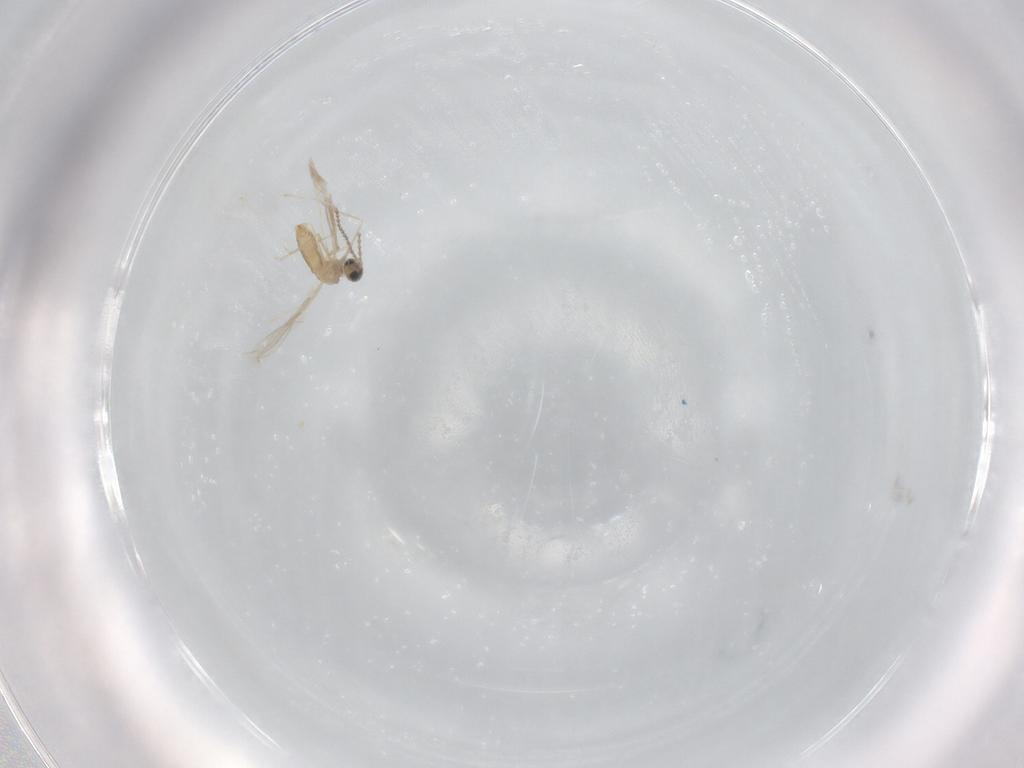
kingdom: Animalia
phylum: Arthropoda
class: Insecta
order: Diptera
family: Cecidomyiidae
